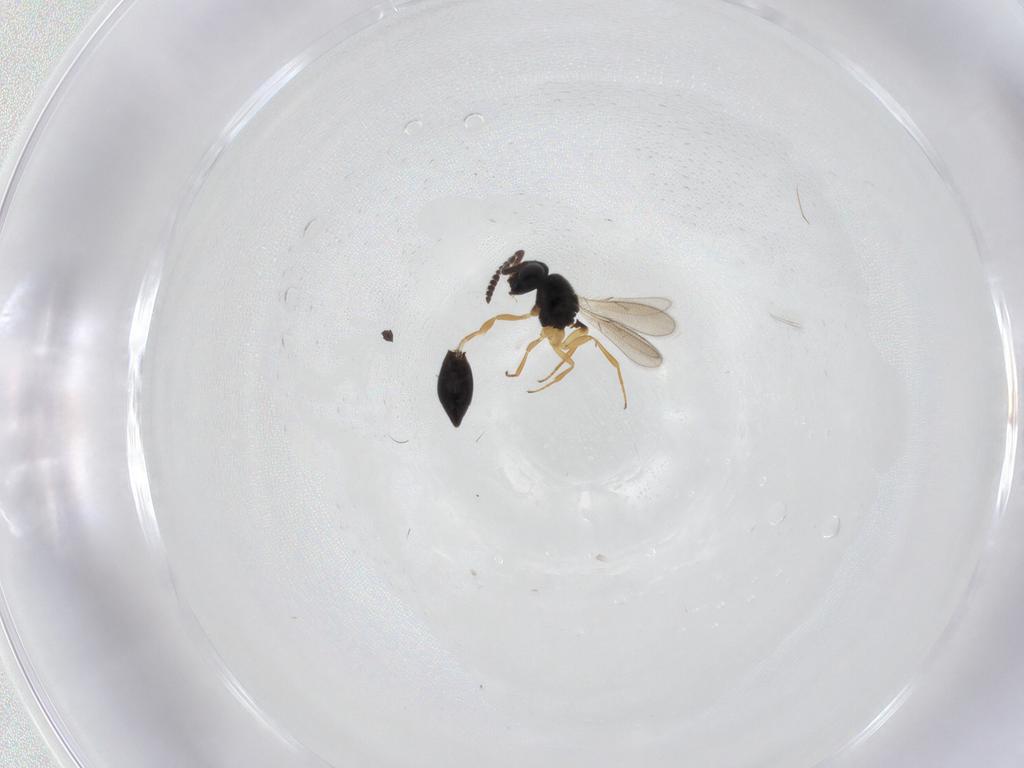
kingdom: Animalia
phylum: Arthropoda
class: Insecta
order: Hymenoptera
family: Scelionidae
